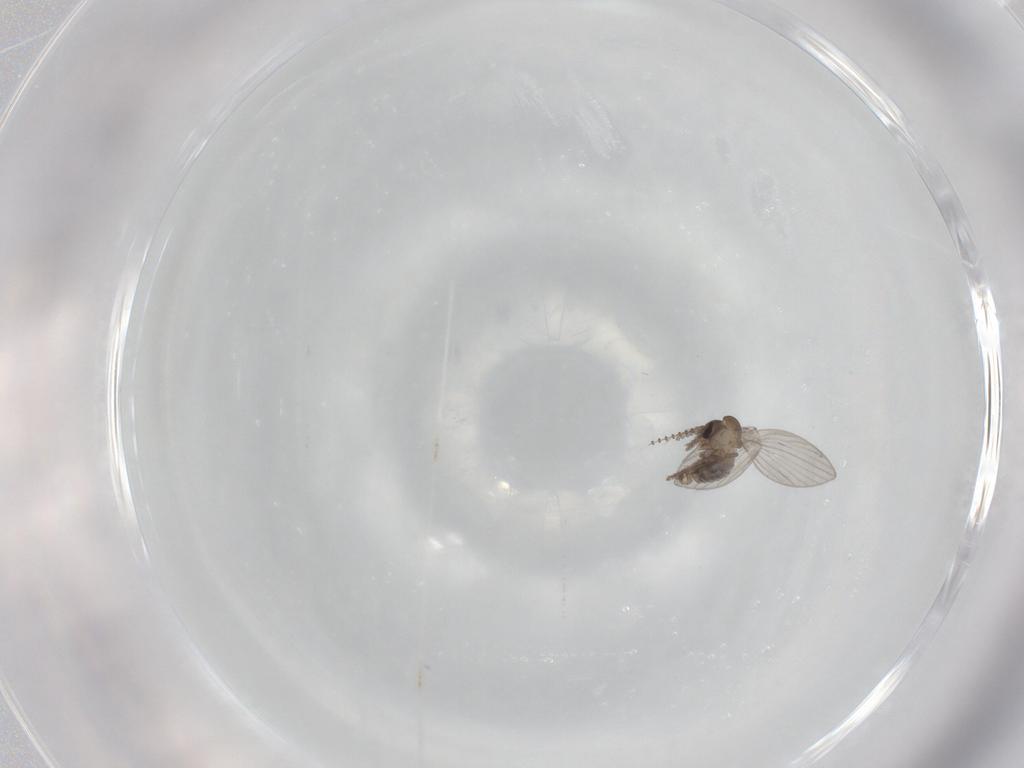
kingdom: Animalia
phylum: Arthropoda
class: Insecta
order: Diptera
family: Psychodidae
